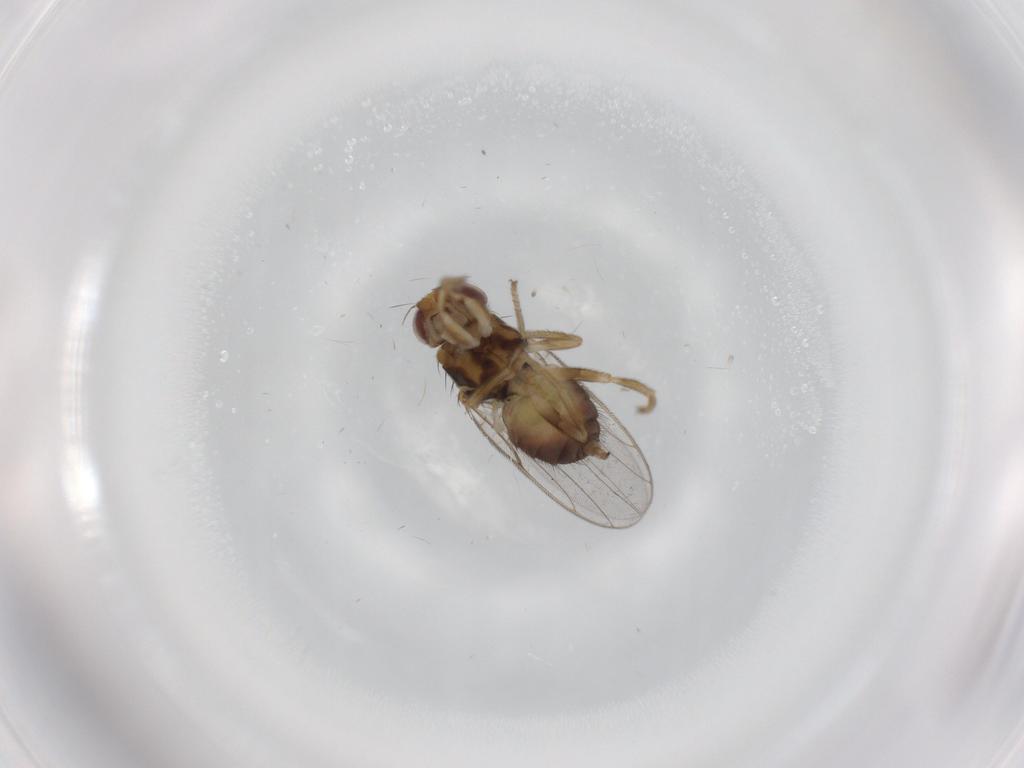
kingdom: Animalia
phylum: Arthropoda
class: Insecta
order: Diptera
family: Chloropidae
